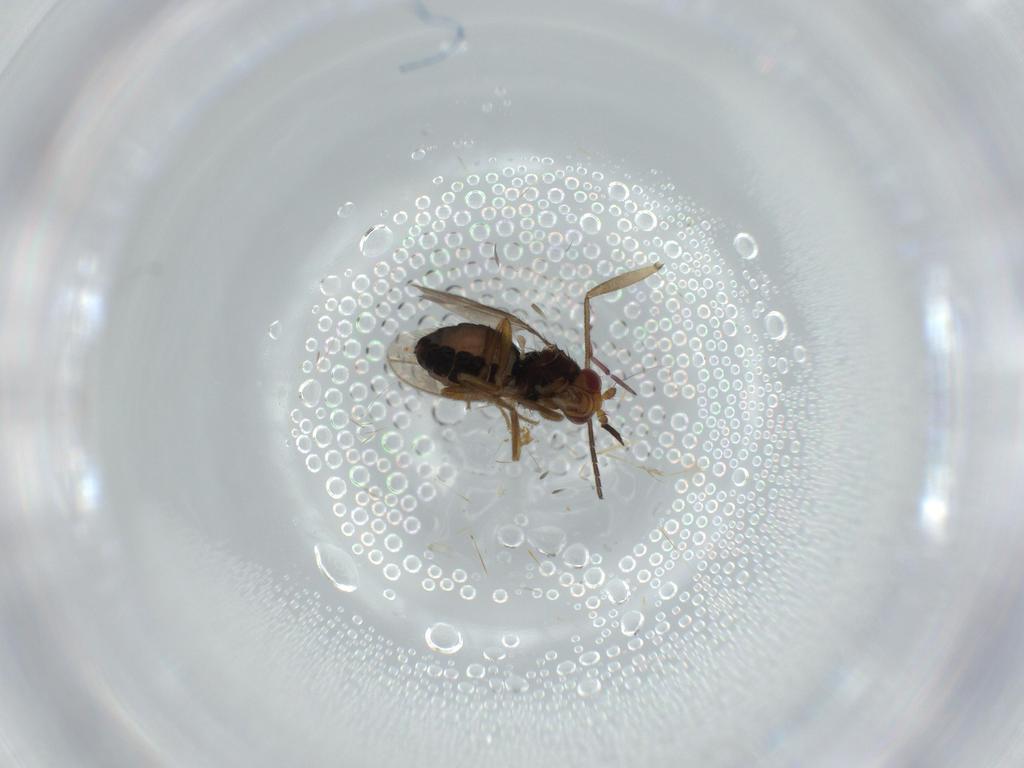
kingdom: Animalia
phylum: Arthropoda
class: Insecta
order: Diptera
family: Sphaeroceridae
